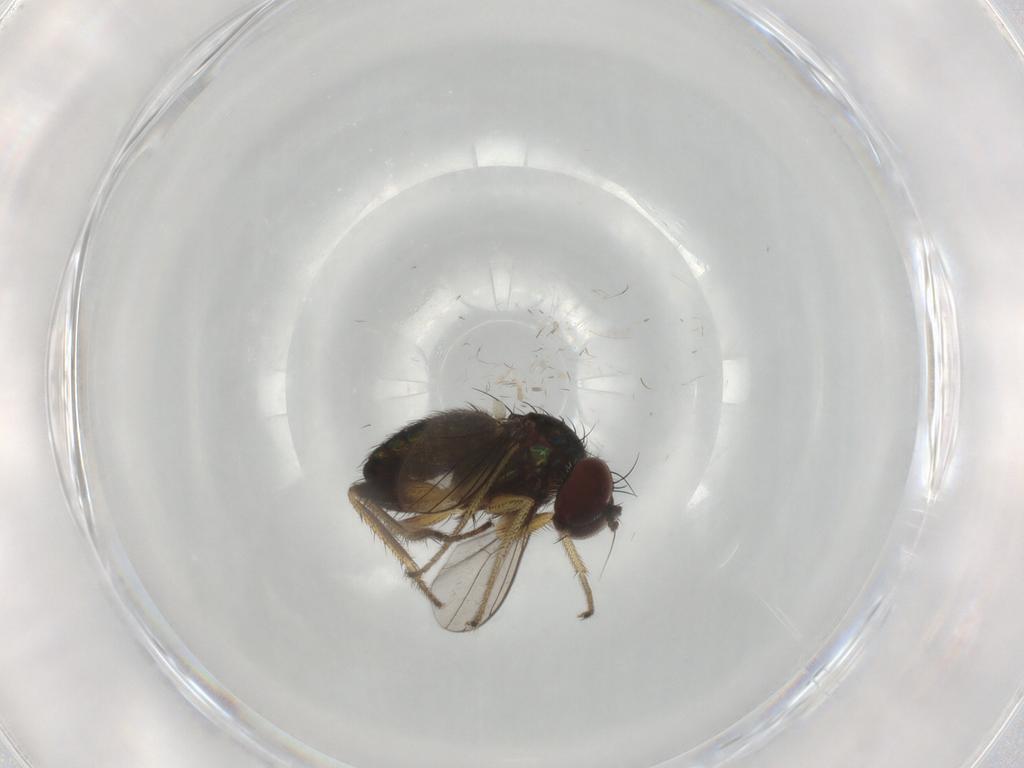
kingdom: Animalia
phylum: Arthropoda
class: Insecta
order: Diptera
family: Dolichopodidae
